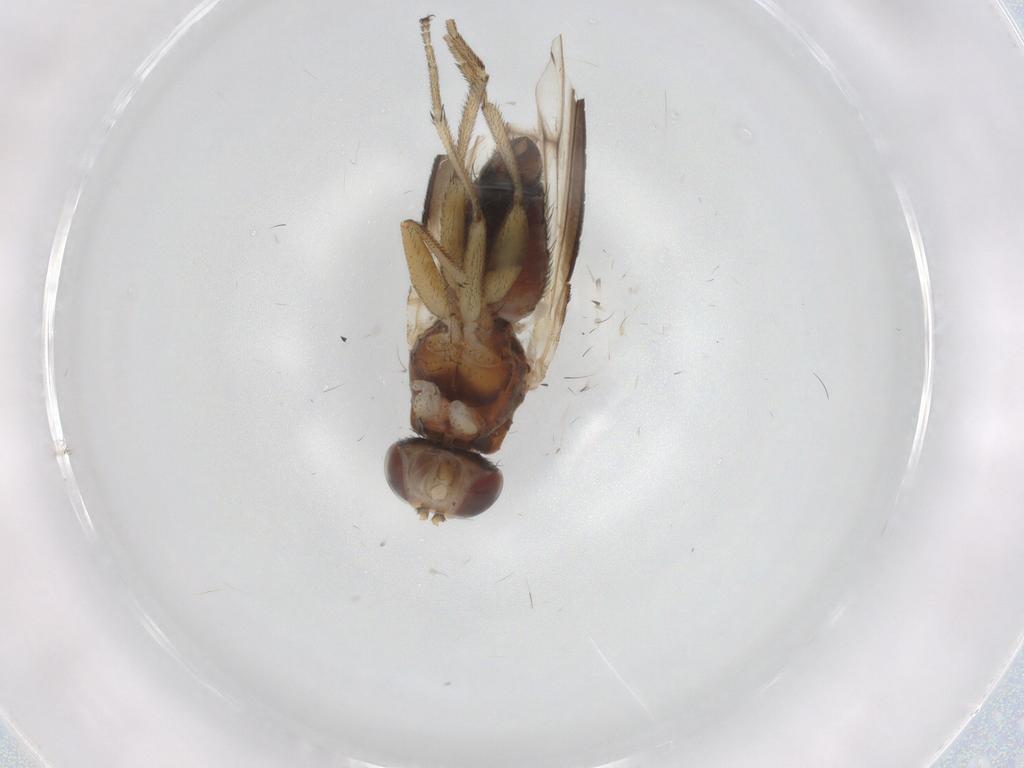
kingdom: Animalia
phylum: Arthropoda
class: Insecta
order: Diptera
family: Heleomyzidae
